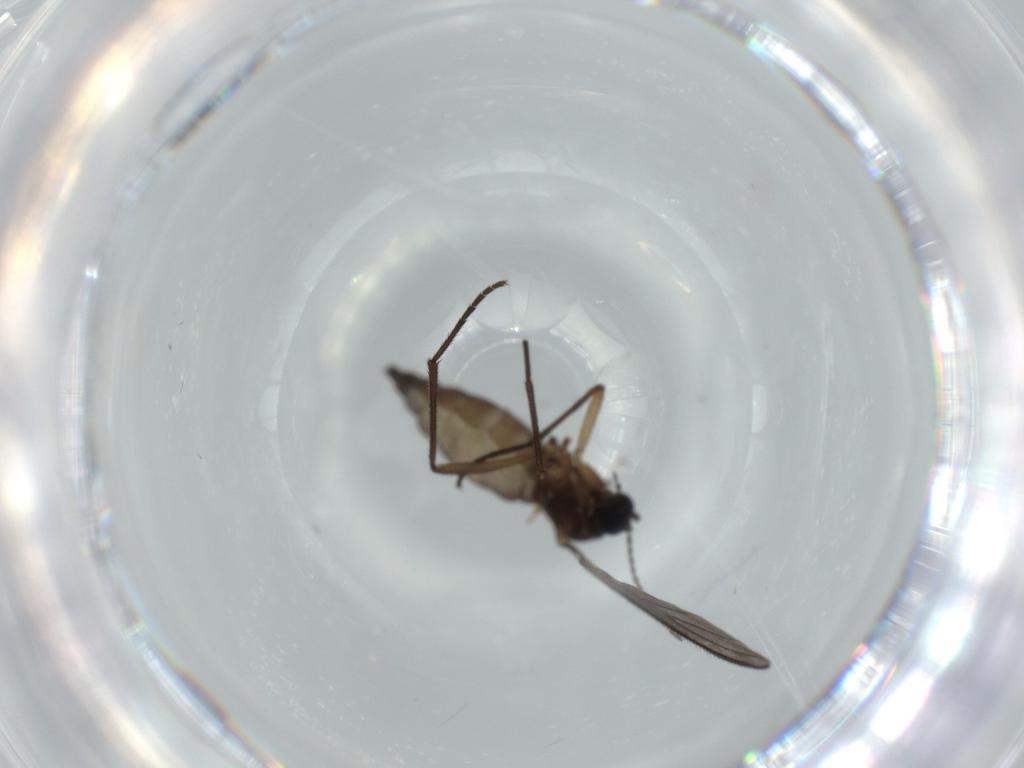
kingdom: Animalia
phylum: Arthropoda
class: Insecta
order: Diptera
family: Sciaridae
